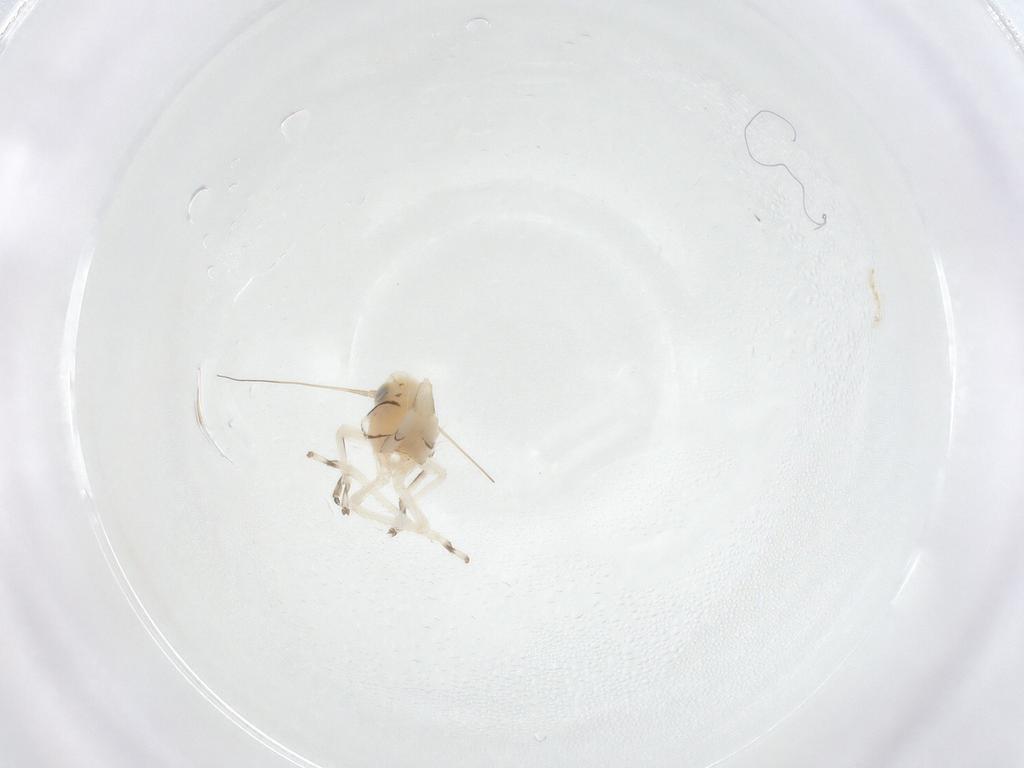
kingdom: Animalia
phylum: Arthropoda
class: Insecta
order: Hemiptera
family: Cicadellidae
